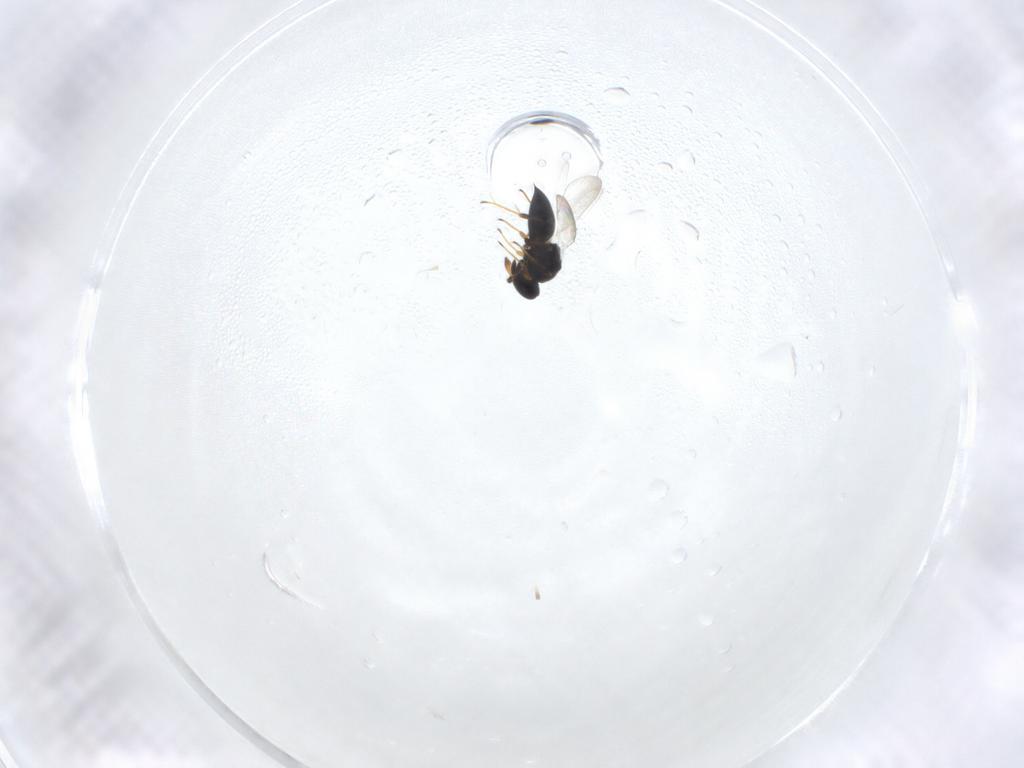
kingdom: Animalia
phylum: Arthropoda
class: Insecta
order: Hymenoptera
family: Platygastridae
